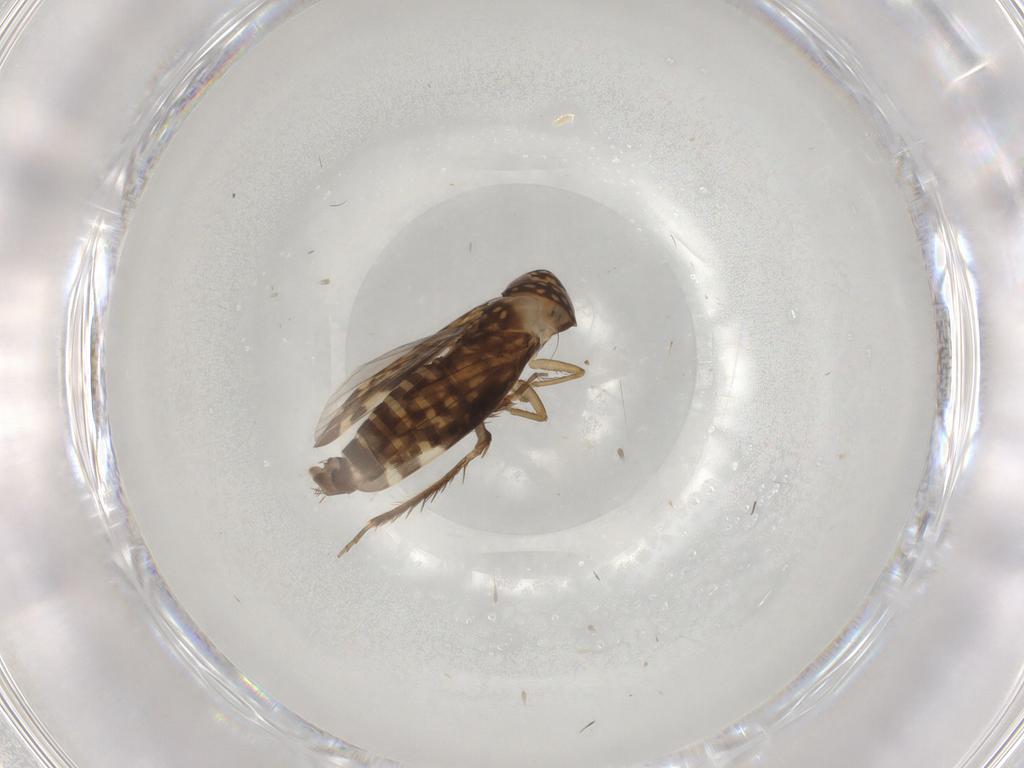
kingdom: Animalia
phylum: Arthropoda
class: Insecta
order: Hemiptera
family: Cicadellidae
